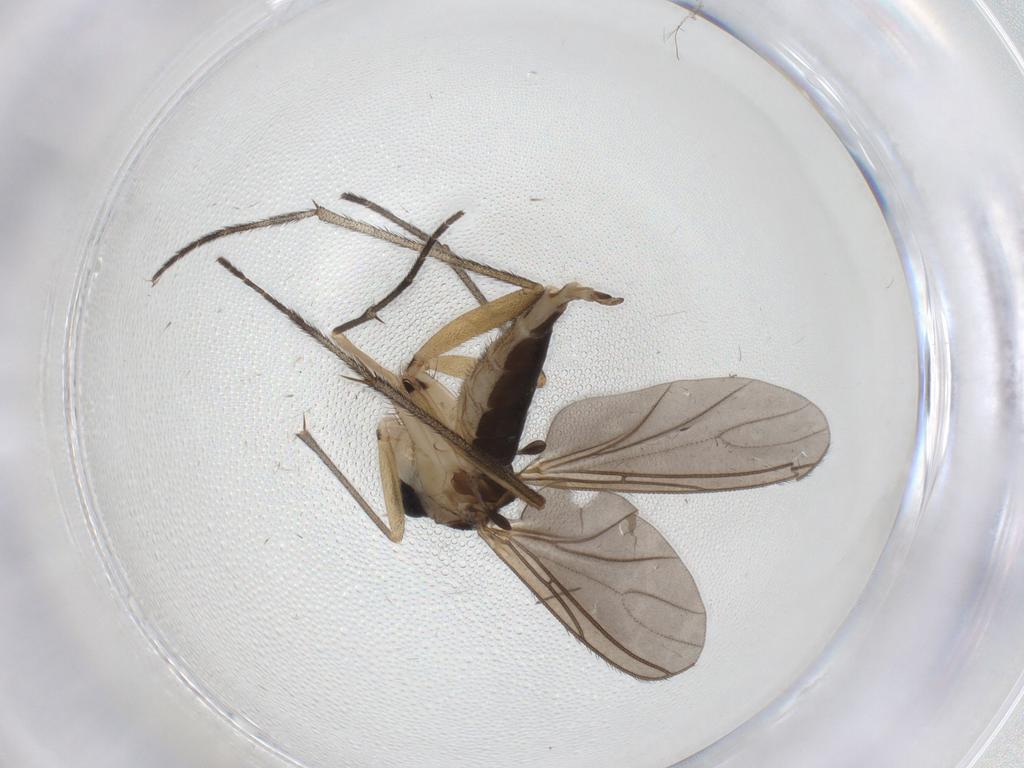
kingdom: Animalia
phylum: Arthropoda
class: Insecta
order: Diptera
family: Sciaridae
